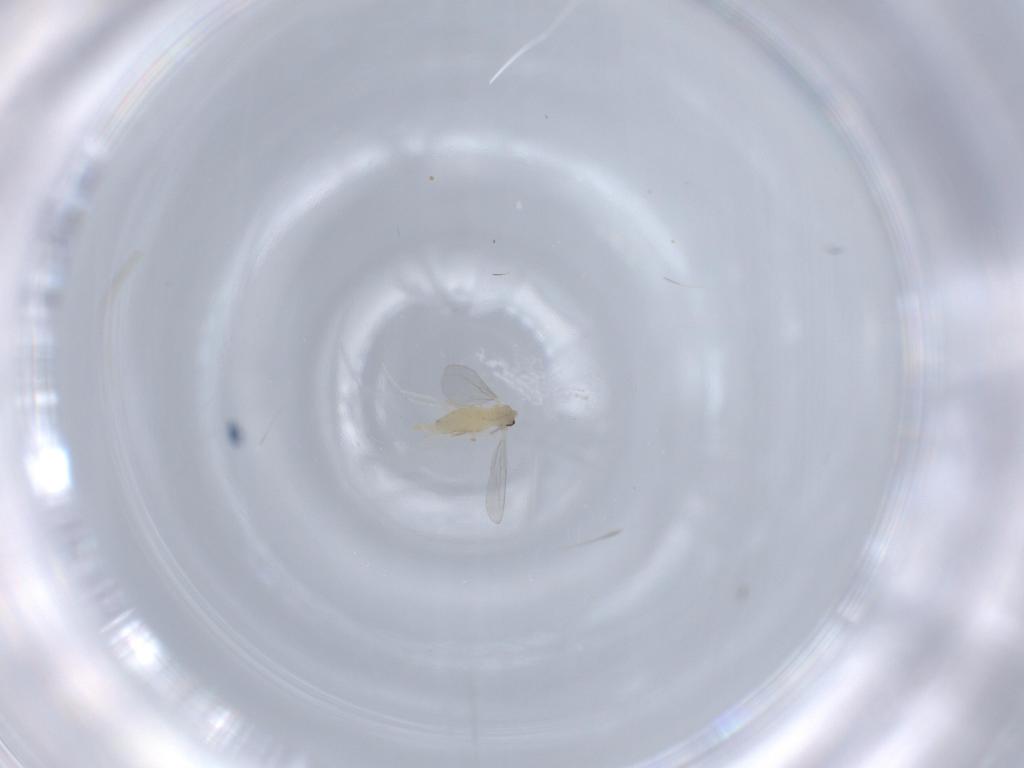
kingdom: Animalia
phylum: Arthropoda
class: Insecta
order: Diptera
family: Cecidomyiidae
